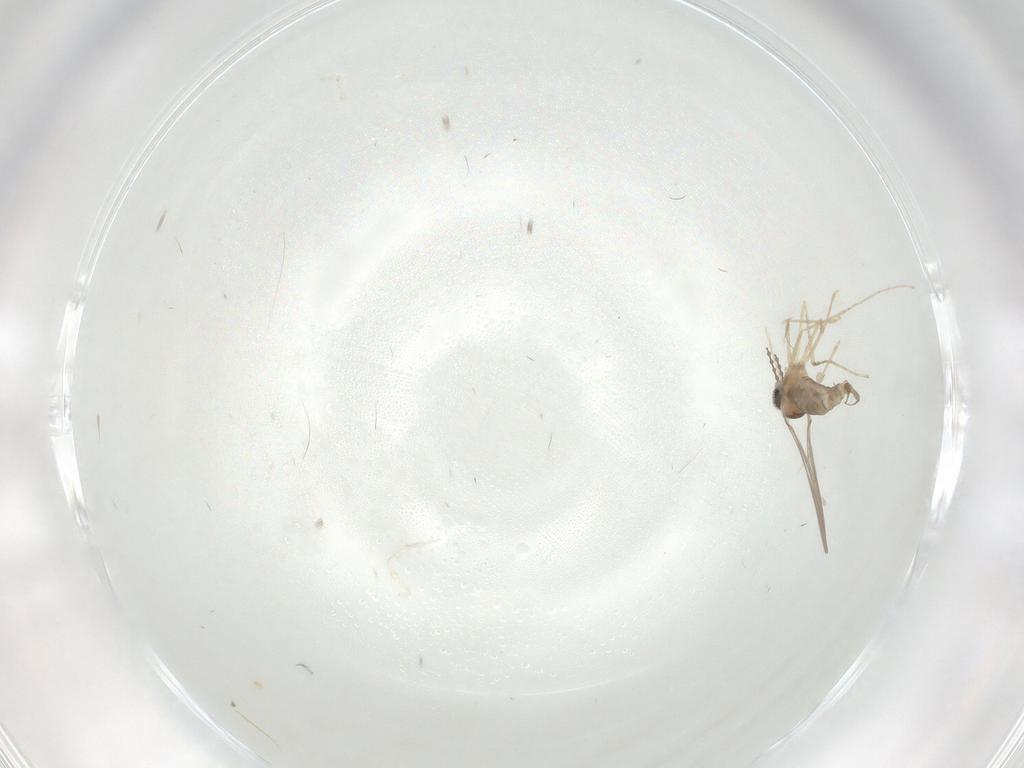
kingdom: Animalia
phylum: Arthropoda
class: Insecta
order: Diptera
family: Cecidomyiidae
